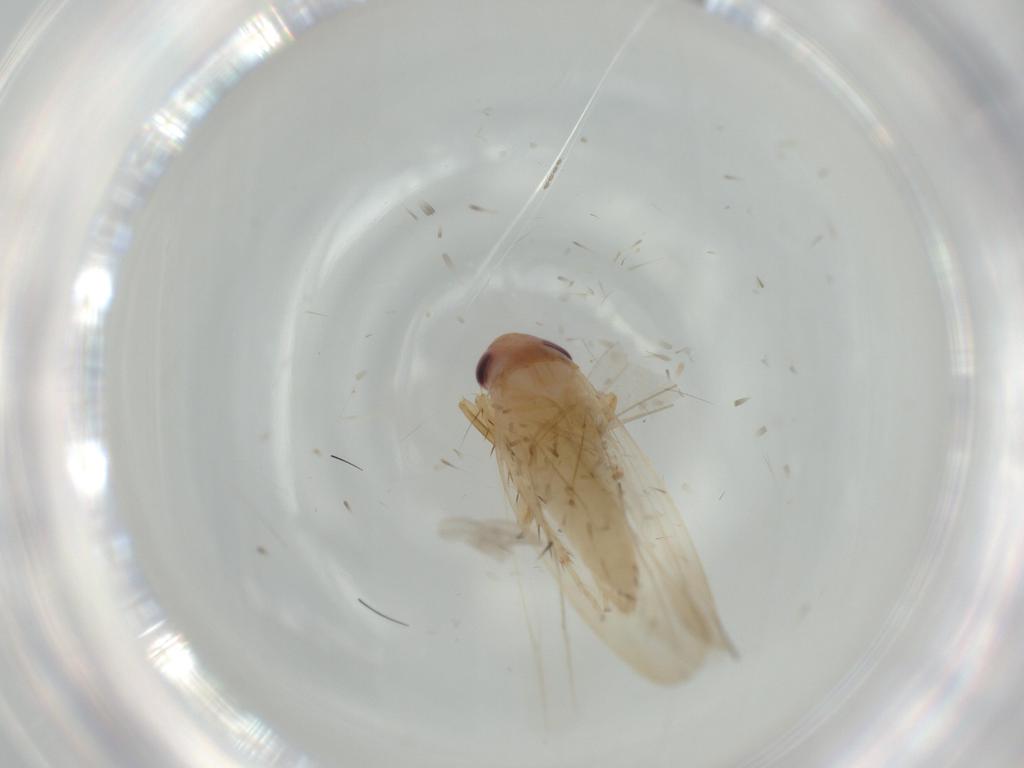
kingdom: Animalia
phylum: Arthropoda
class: Insecta
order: Hemiptera
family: Cicadellidae
